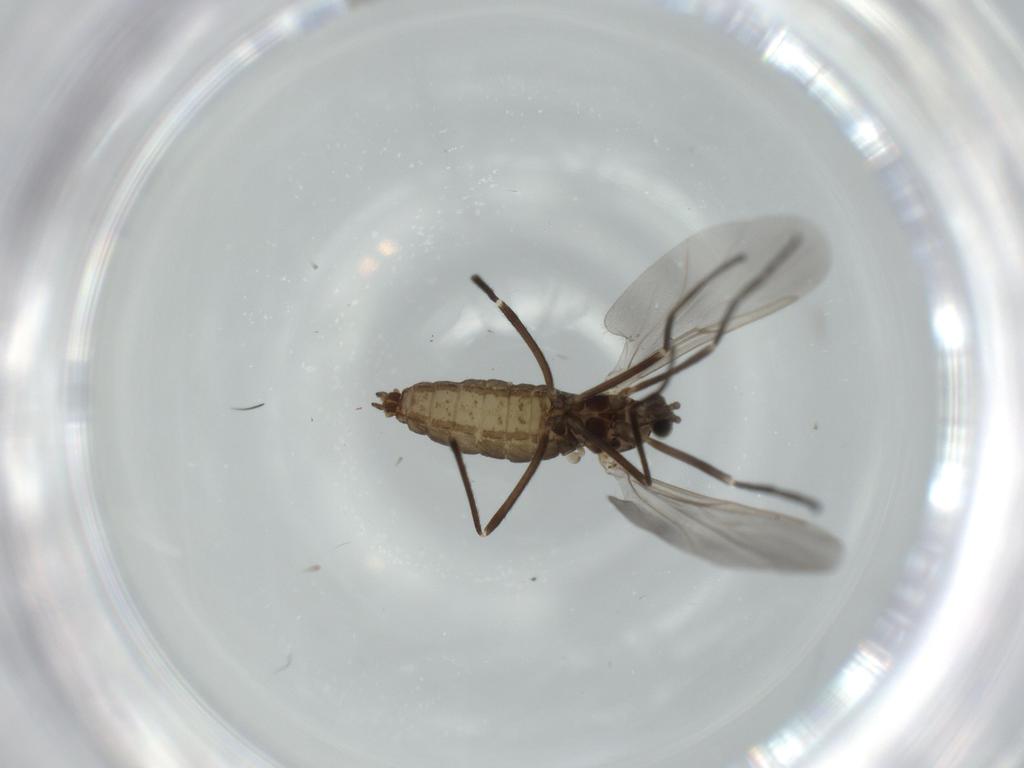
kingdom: Animalia
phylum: Arthropoda
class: Insecta
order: Diptera
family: Cecidomyiidae
